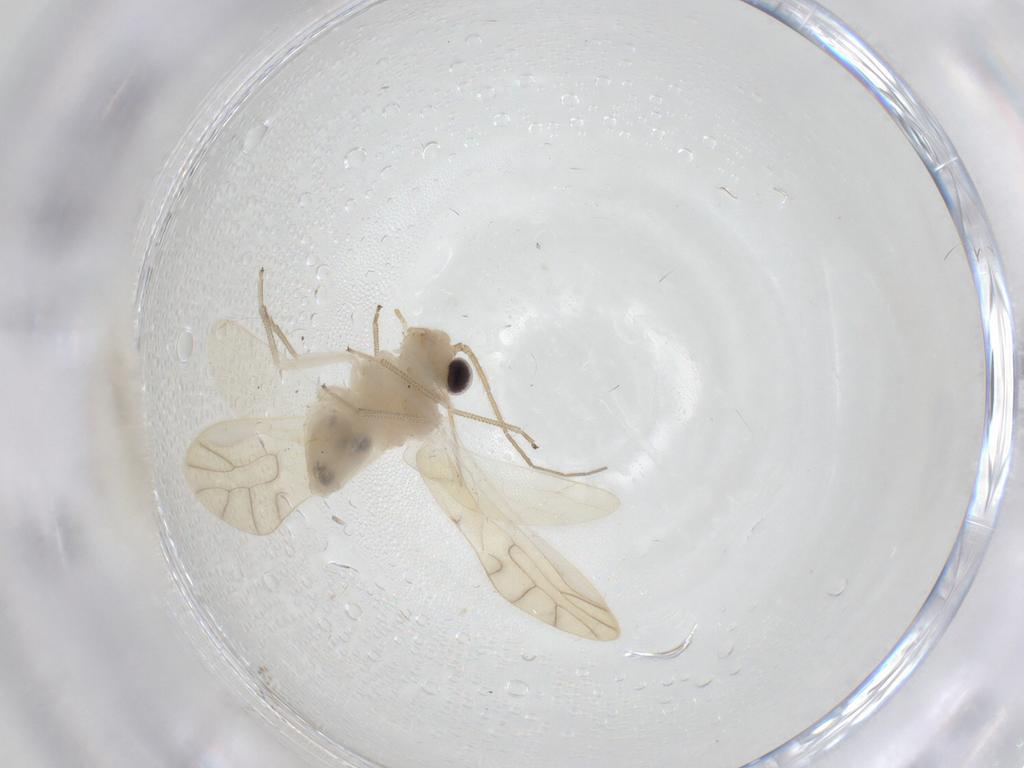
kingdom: Animalia
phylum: Arthropoda
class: Insecta
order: Psocodea
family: Caeciliusidae
